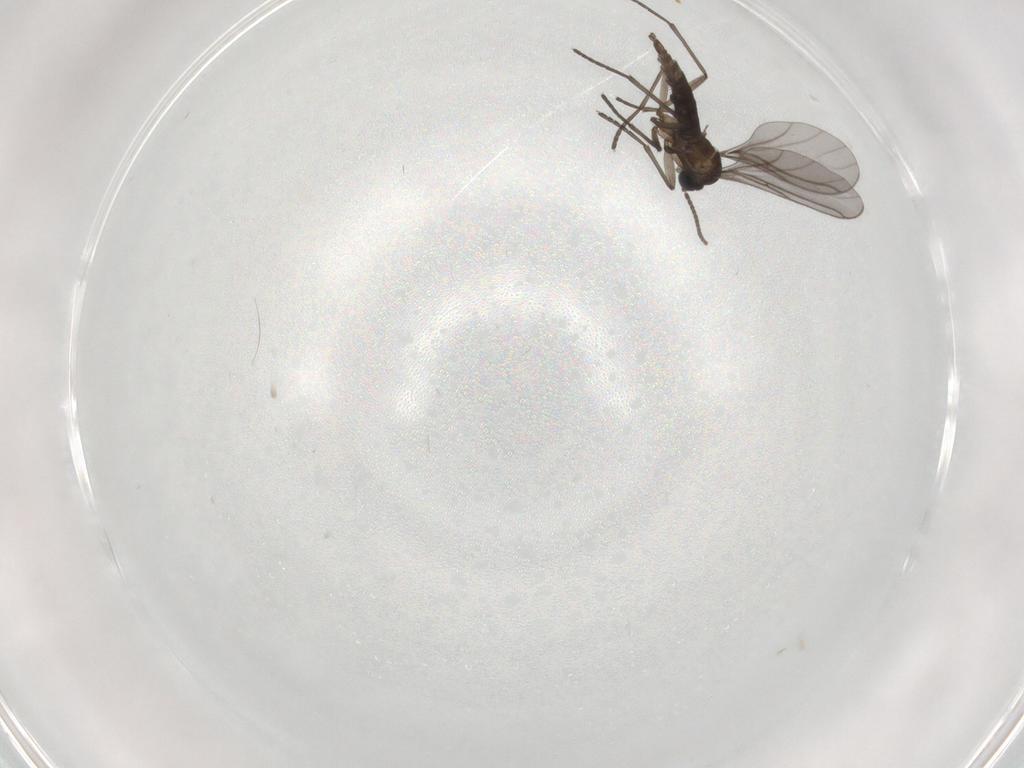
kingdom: Animalia
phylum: Arthropoda
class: Insecta
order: Diptera
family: Sciaridae
